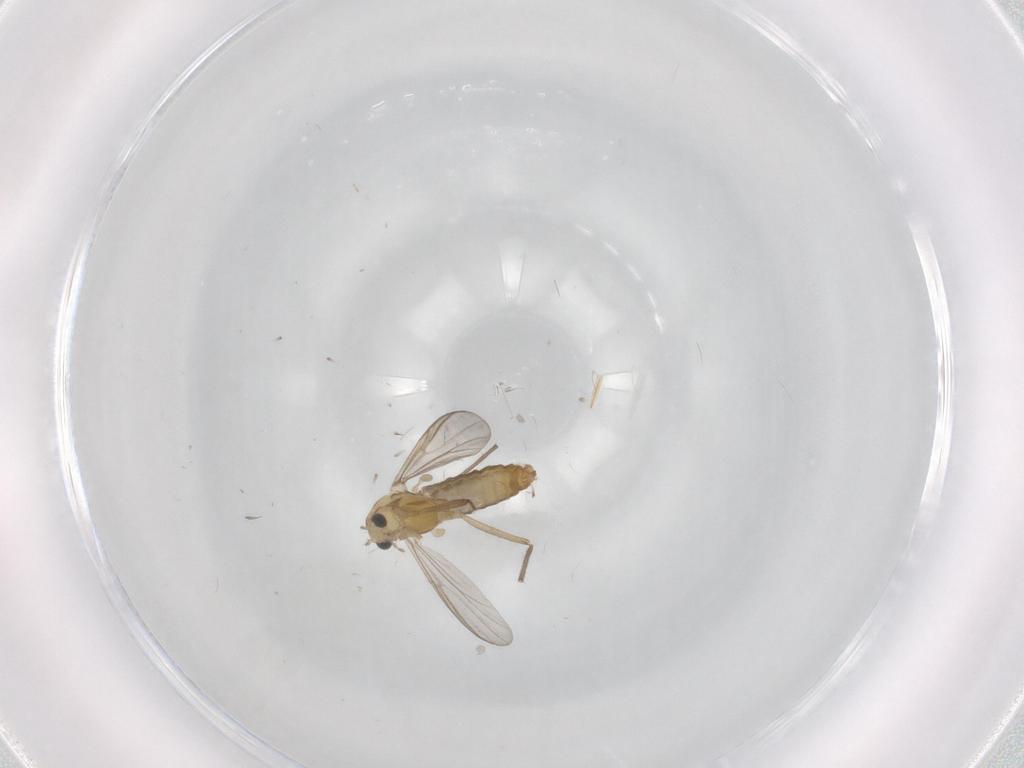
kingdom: Animalia
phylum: Arthropoda
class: Insecta
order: Diptera
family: Chironomidae
